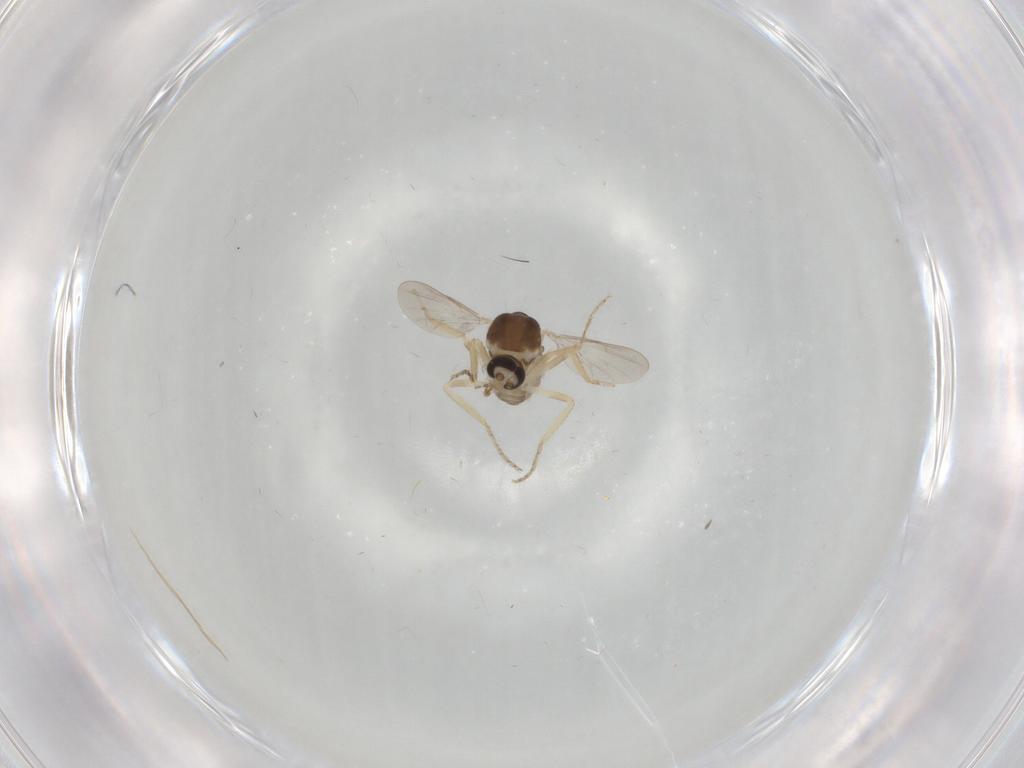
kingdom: Animalia
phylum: Arthropoda
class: Insecta
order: Diptera
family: Ceratopogonidae
